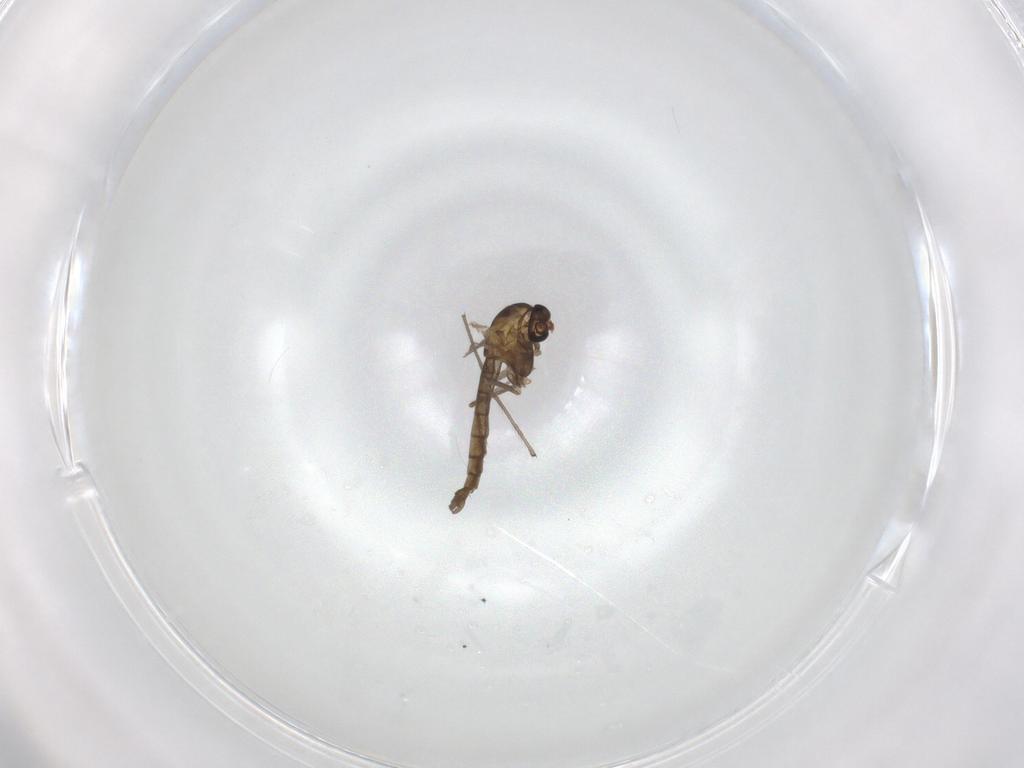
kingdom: Animalia
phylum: Arthropoda
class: Insecta
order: Diptera
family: Chironomidae
